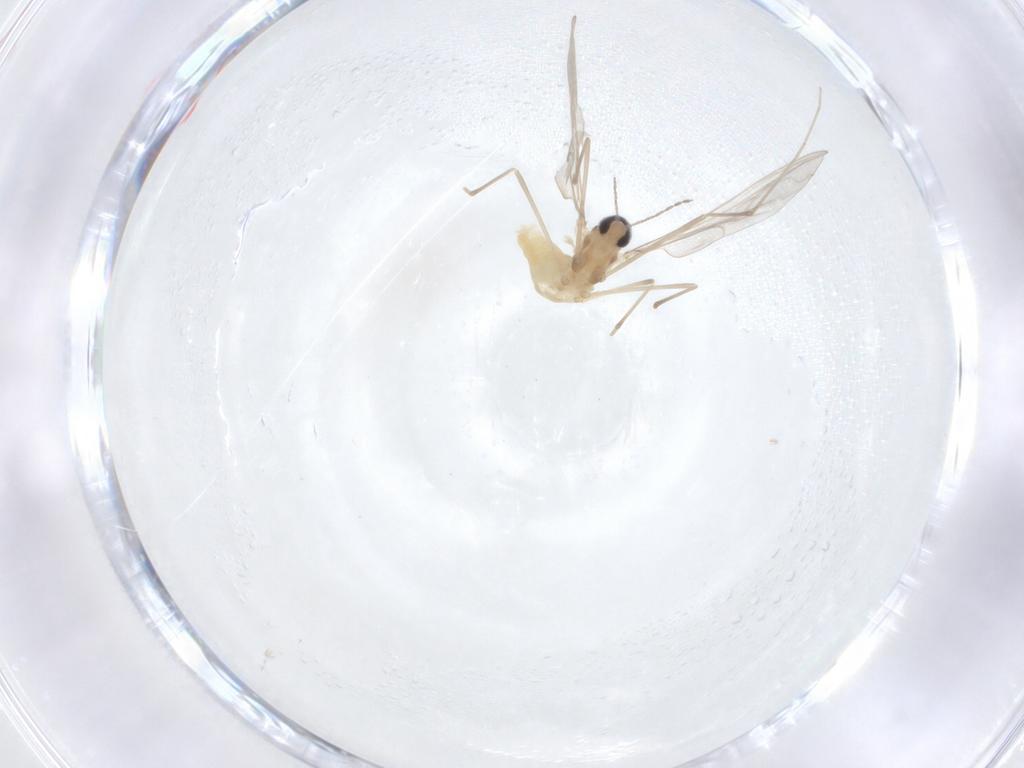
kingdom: Animalia
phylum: Arthropoda
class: Insecta
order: Diptera
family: Cecidomyiidae
